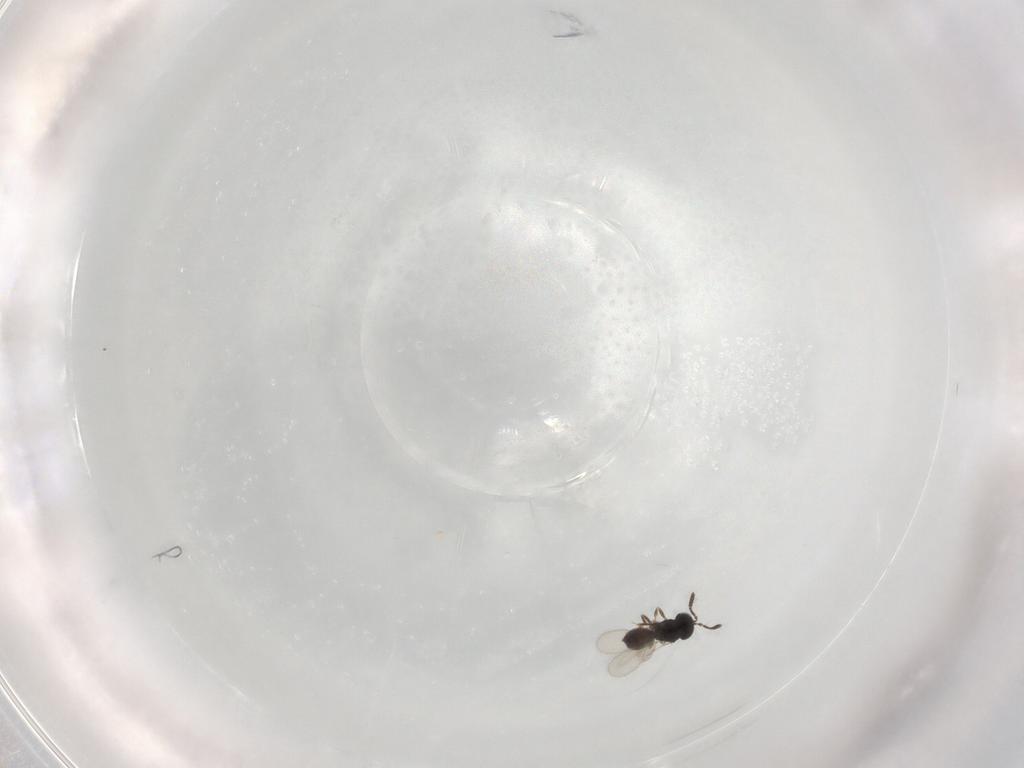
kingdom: Animalia
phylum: Arthropoda
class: Insecta
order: Hymenoptera
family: Scelionidae
